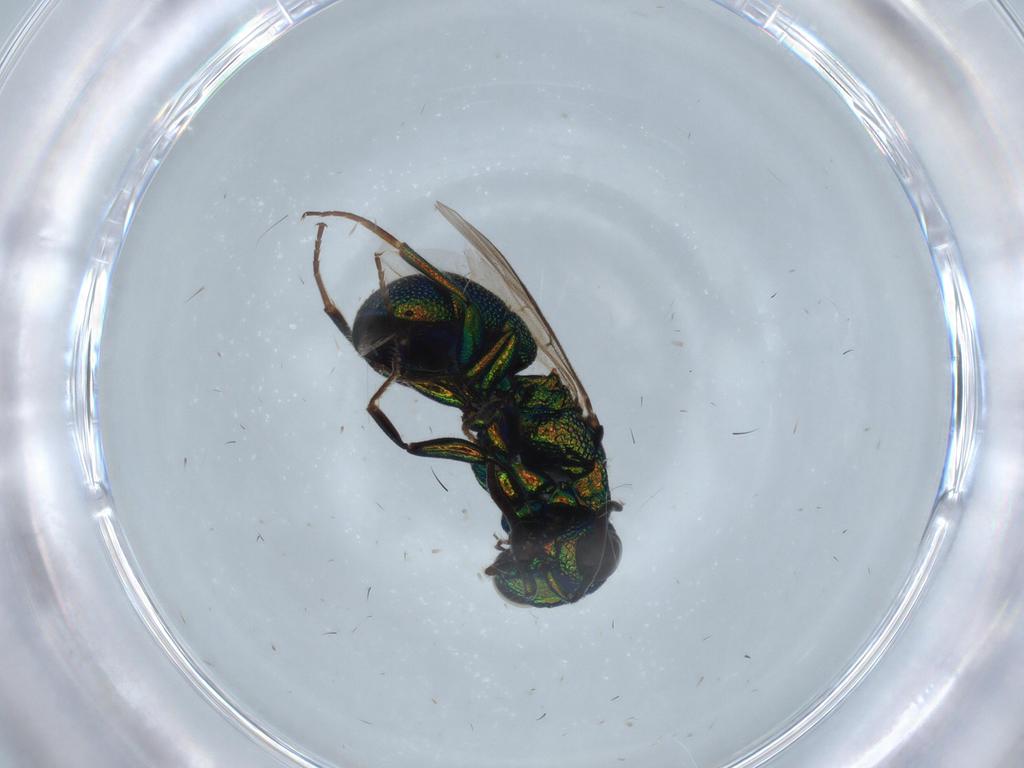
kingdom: Animalia
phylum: Arthropoda
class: Insecta
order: Hymenoptera
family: Chrysididae
